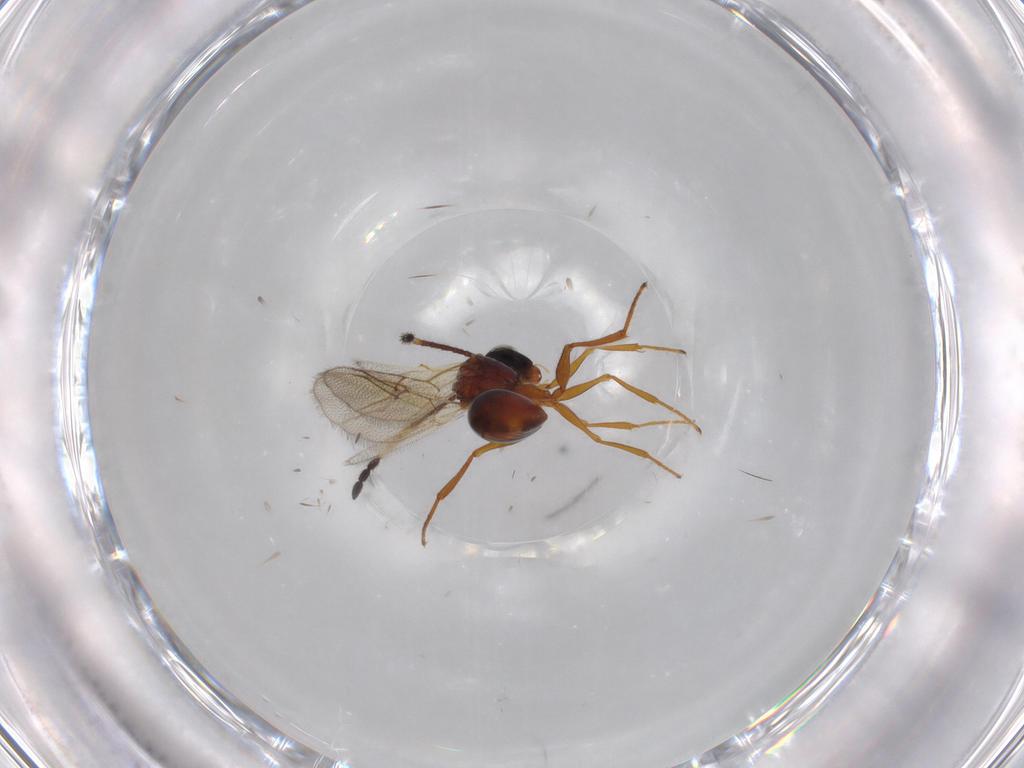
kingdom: Animalia
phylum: Arthropoda
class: Insecta
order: Hymenoptera
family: Figitidae
